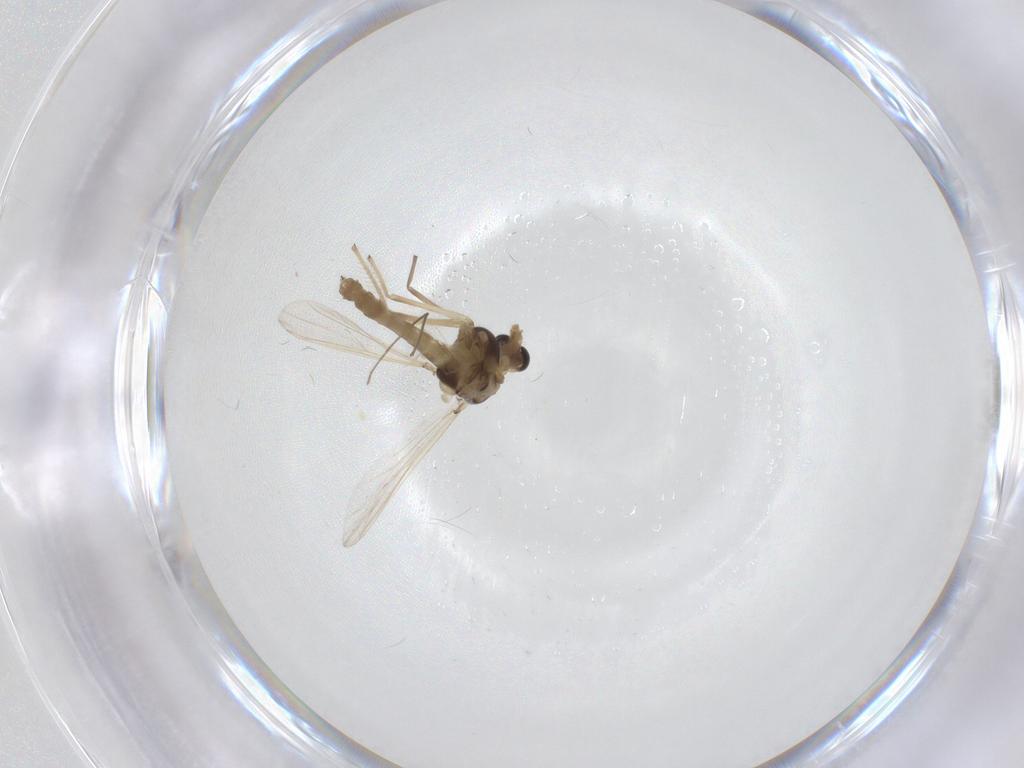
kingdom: Animalia
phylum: Arthropoda
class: Insecta
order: Diptera
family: Chironomidae
